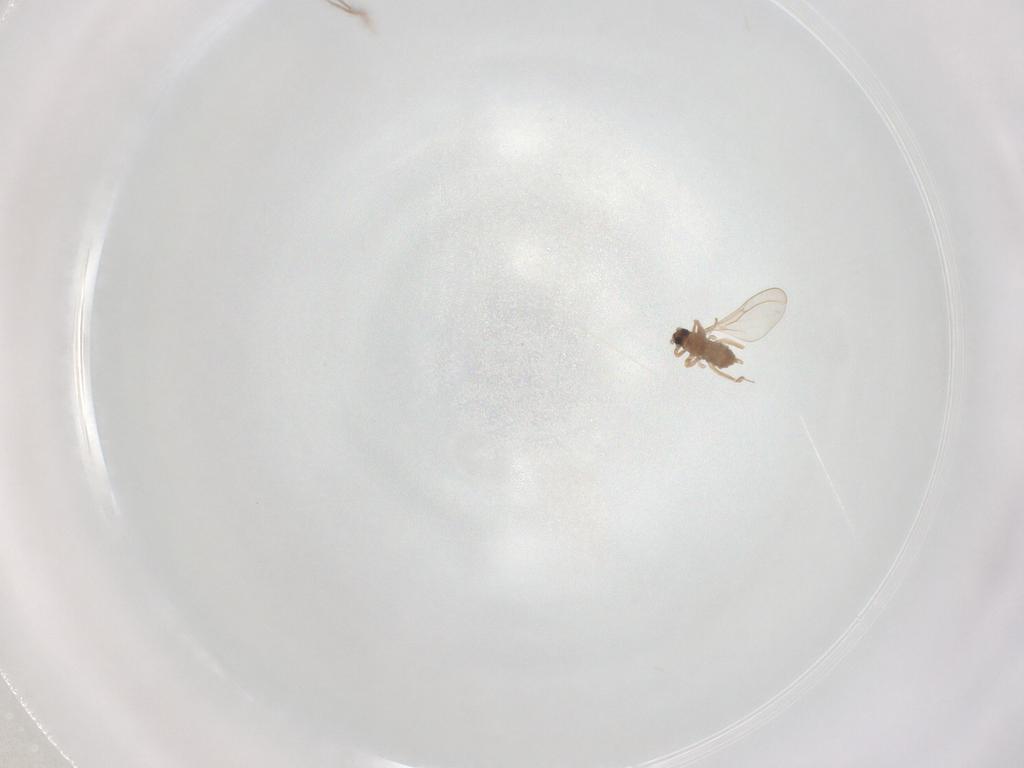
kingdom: Animalia
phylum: Arthropoda
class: Insecta
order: Diptera
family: Cecidomyiidae
